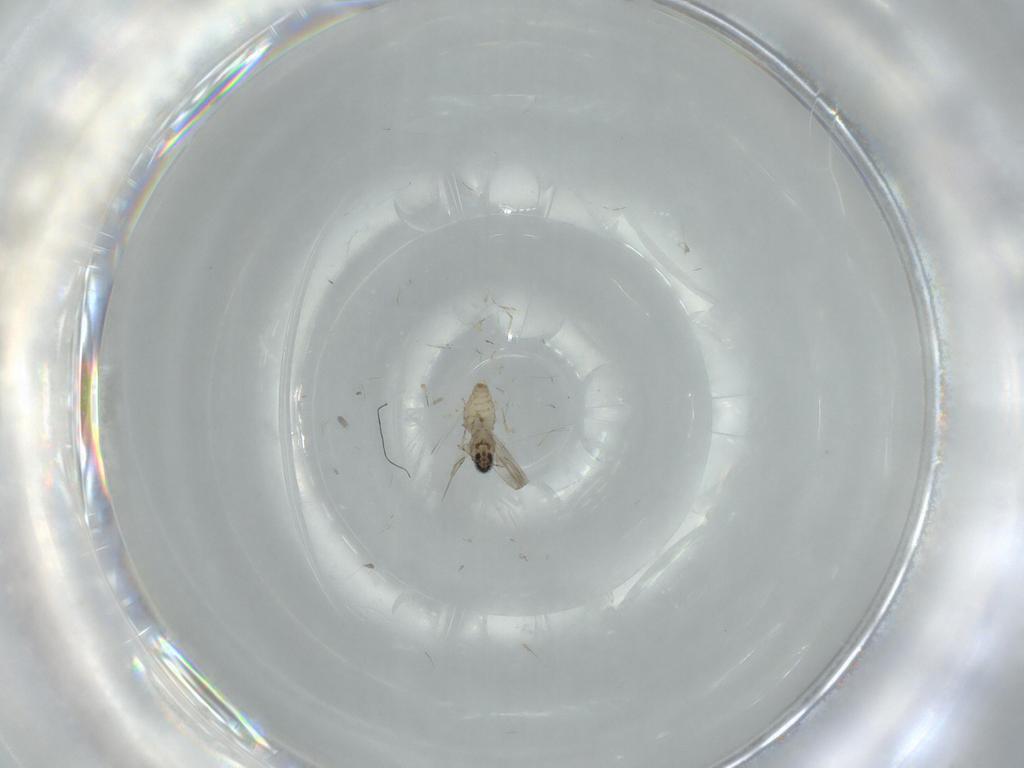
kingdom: Animalia
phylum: Arthropoda
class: Insecta
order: Diptera
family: Cecidomyiidae
